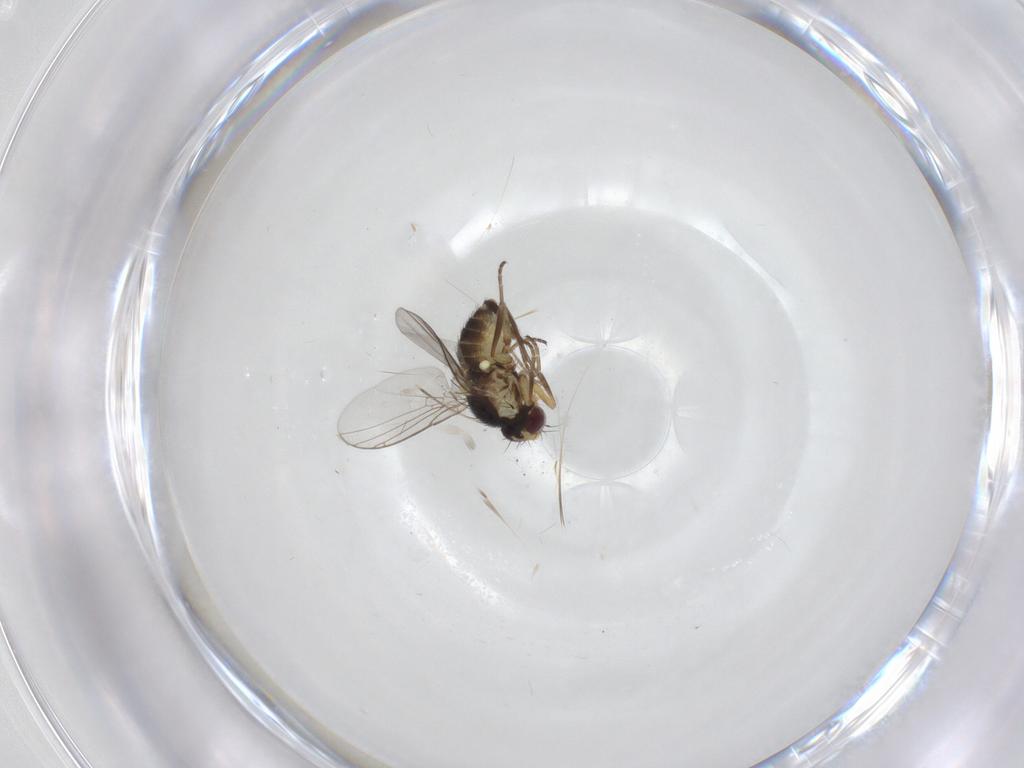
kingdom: Animalia
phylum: Arthropoda
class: Insecta
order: Diptera
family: Agromyzidae
